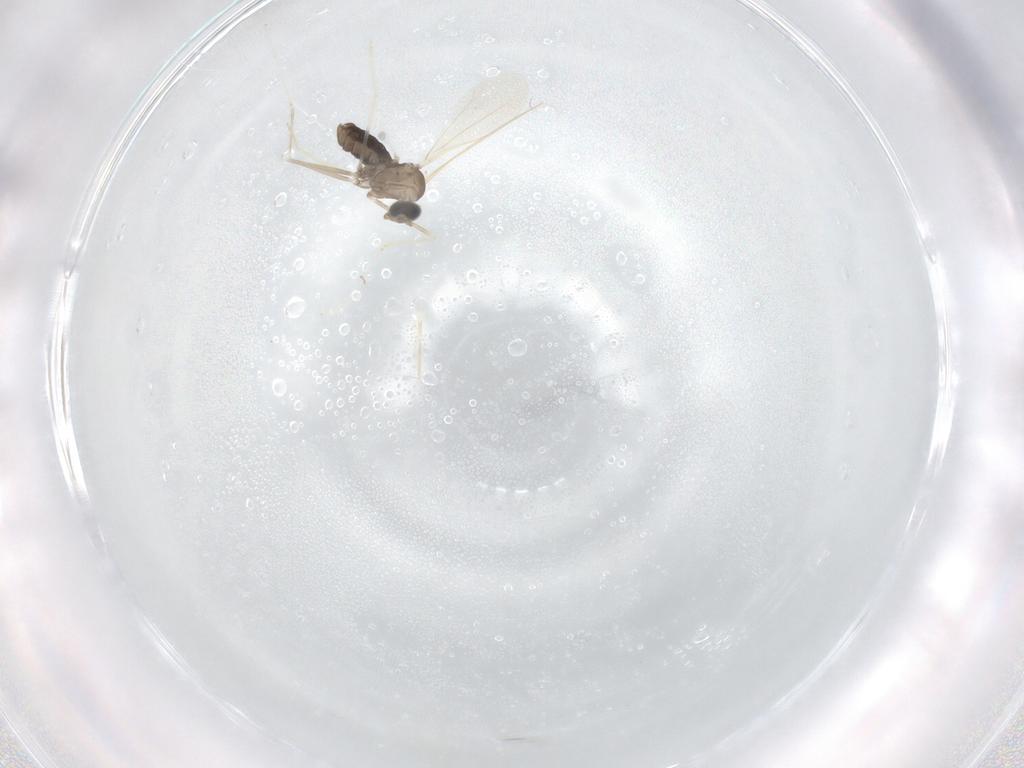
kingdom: Animalia
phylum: Arthropoda
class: Insecta
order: Diptera
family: Cecidomyiidae
